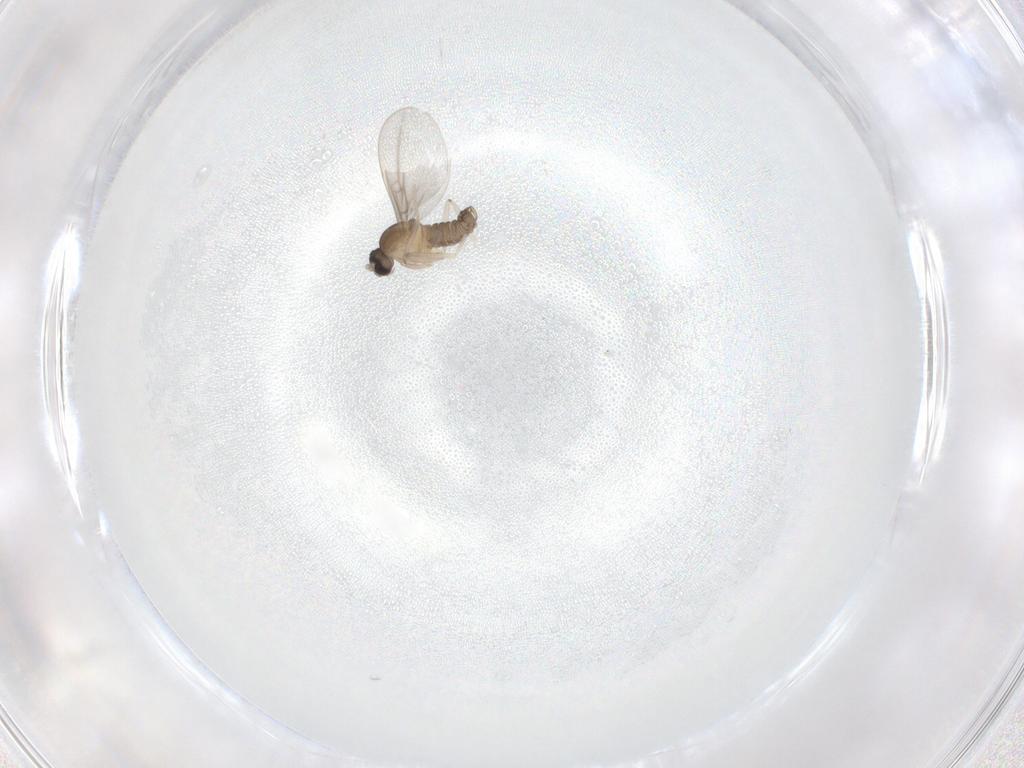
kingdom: Animalia
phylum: Arthropoda
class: Insecta
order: Diptera
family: Cecidomyiidae
